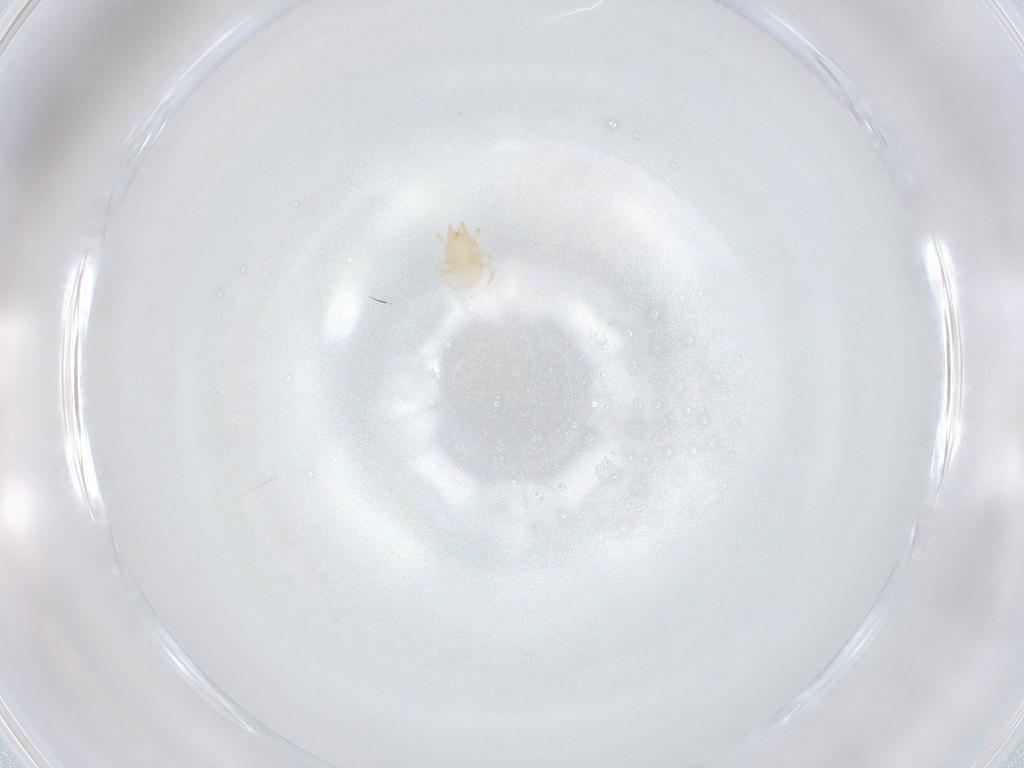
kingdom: Animalia
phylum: Arthropoda
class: Arachnida
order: Mesostigmata
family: Melicharidae
